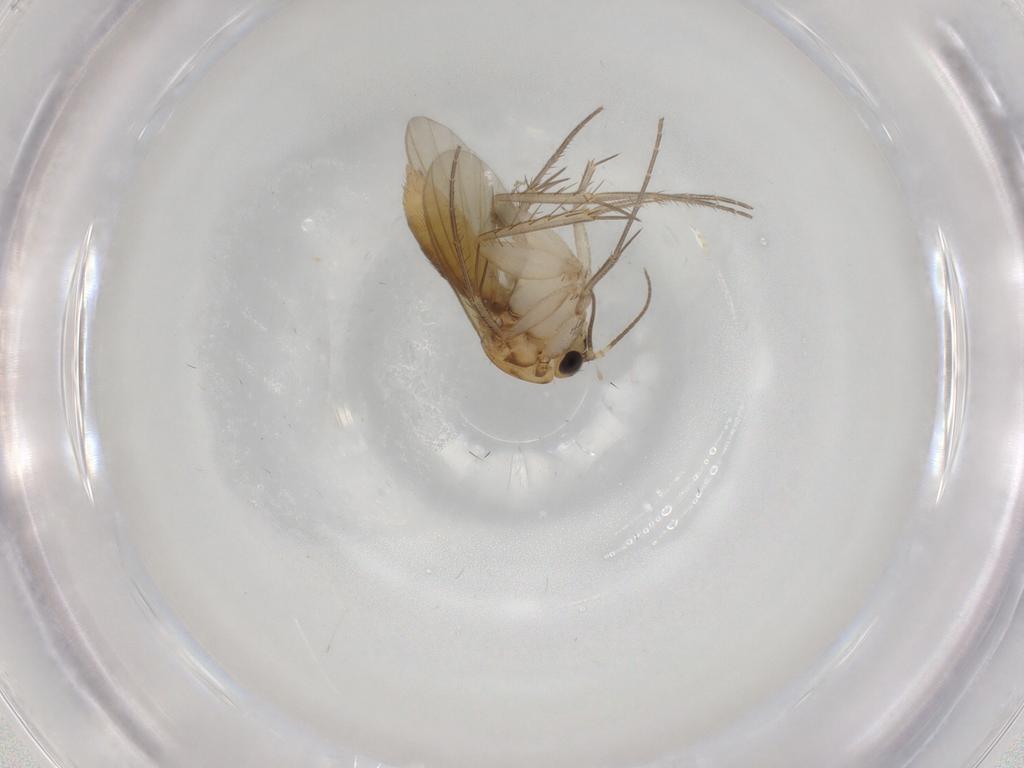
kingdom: Animalia
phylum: Arthropoda
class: Insecta
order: Diptera
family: Mycetophilidae
